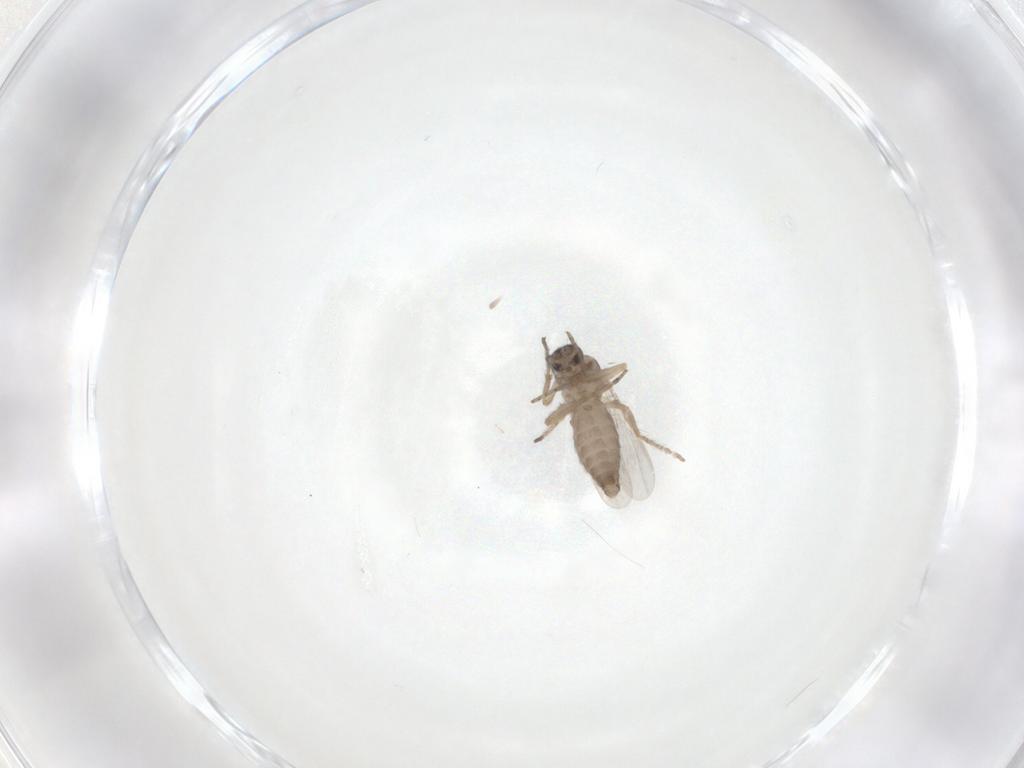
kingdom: Animalia
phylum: Arthropoda
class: Insecta
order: Diptera
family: Ceratopogonidae
